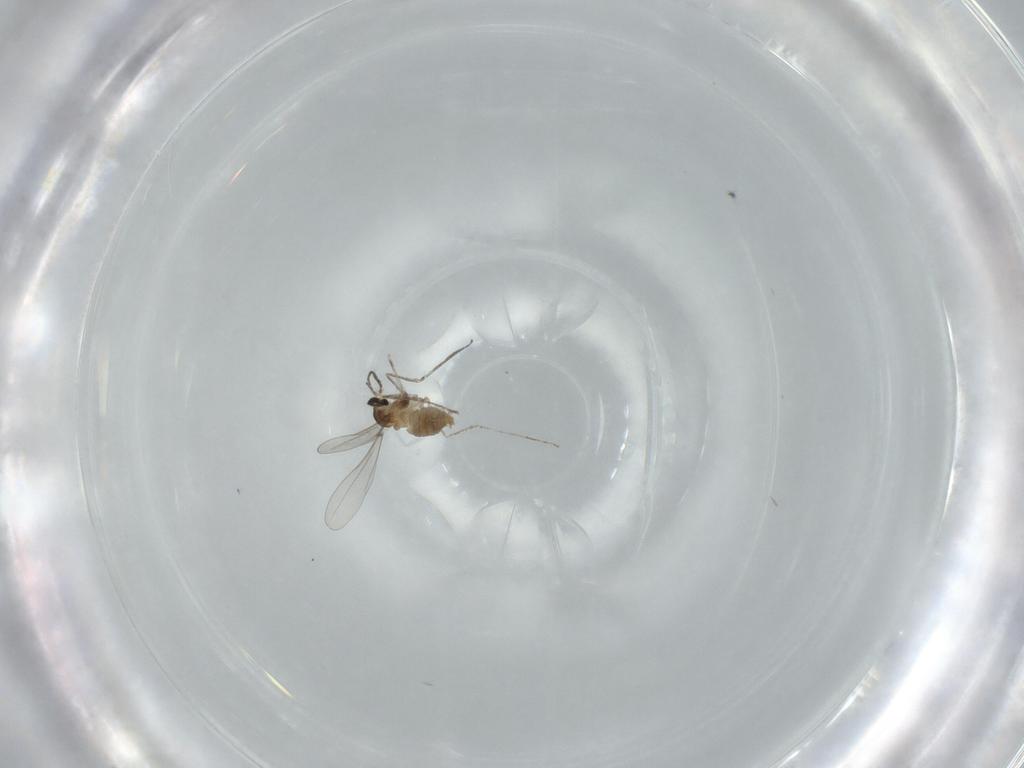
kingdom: Animalia
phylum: Arthropoda
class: Insecta
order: Diptera
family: Cecidomyiidae
